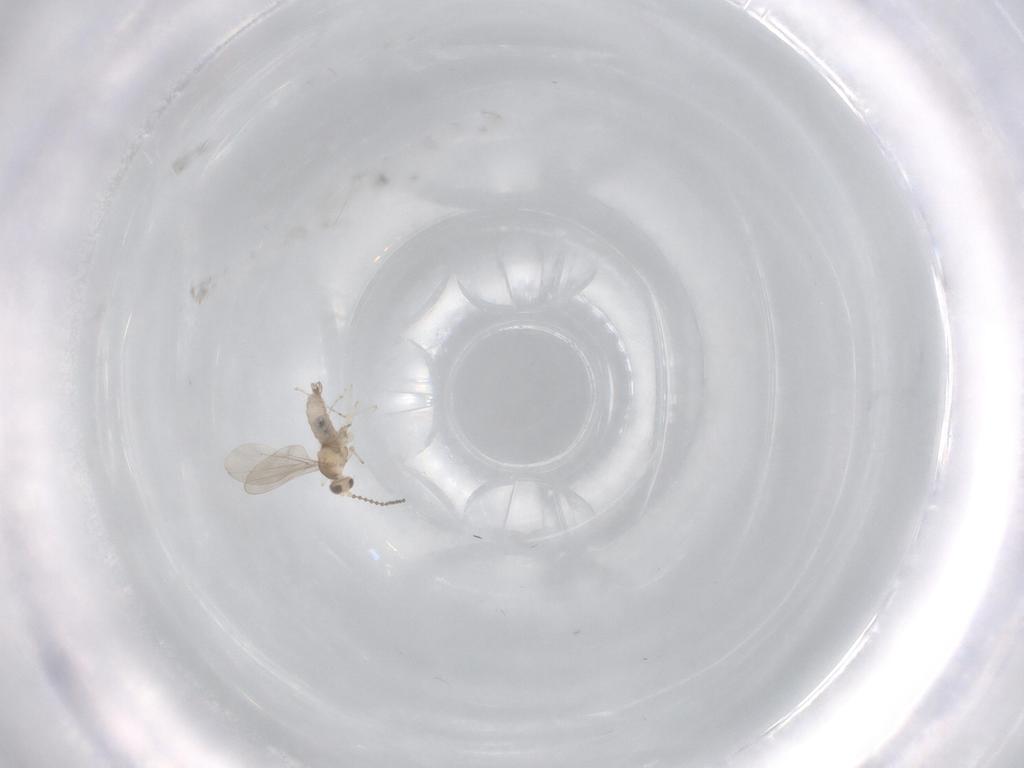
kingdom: Animalia
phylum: Arthropoda
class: Insecta
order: Diptera
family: Cecidomyiidae
